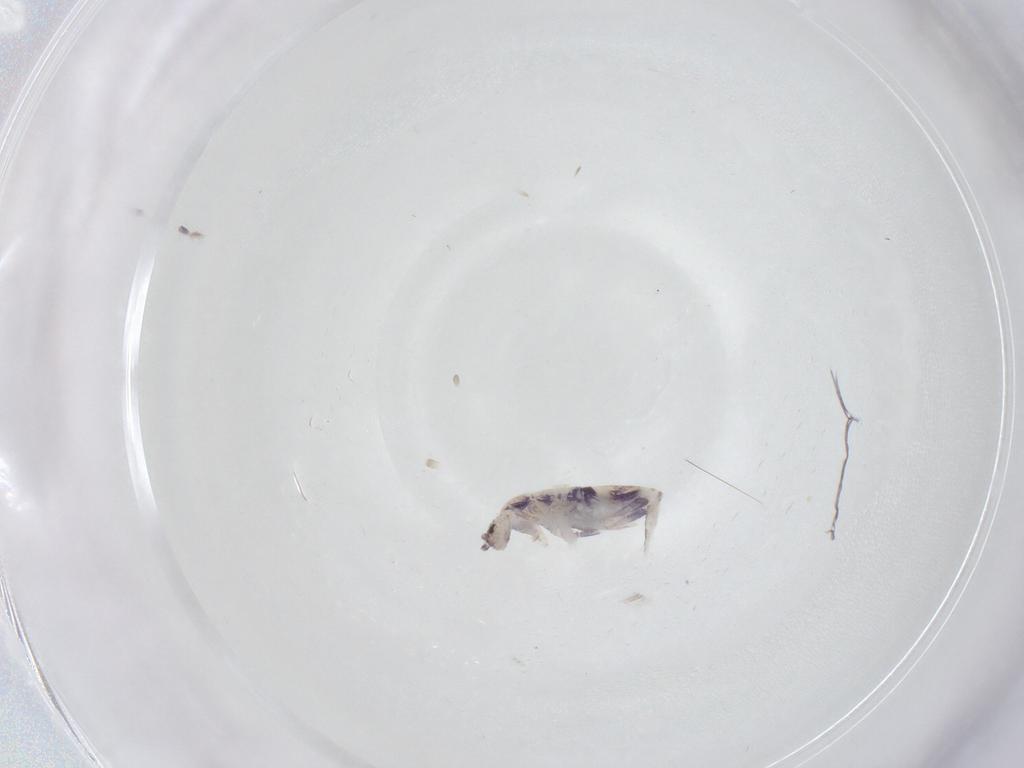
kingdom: Animalia
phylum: Arthropoda
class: Collembola
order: Entomobryomorpha
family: Entomobryidae
